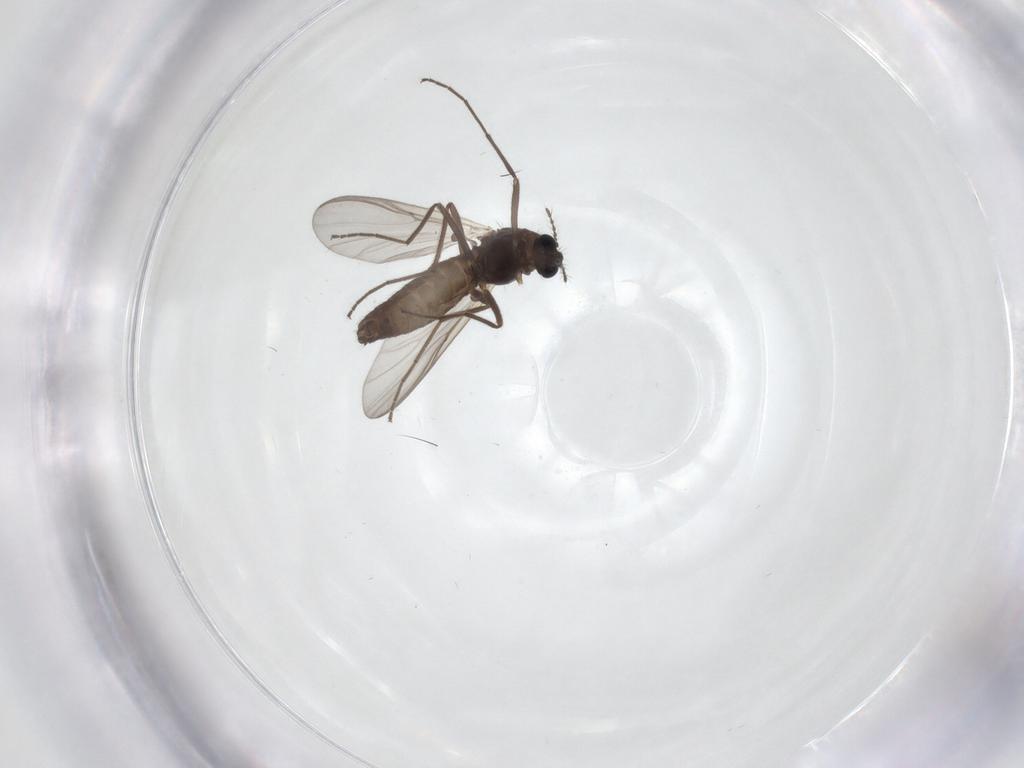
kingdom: Animalia
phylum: Arthropoda
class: Insecta
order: Diptera
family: Chironomidae
